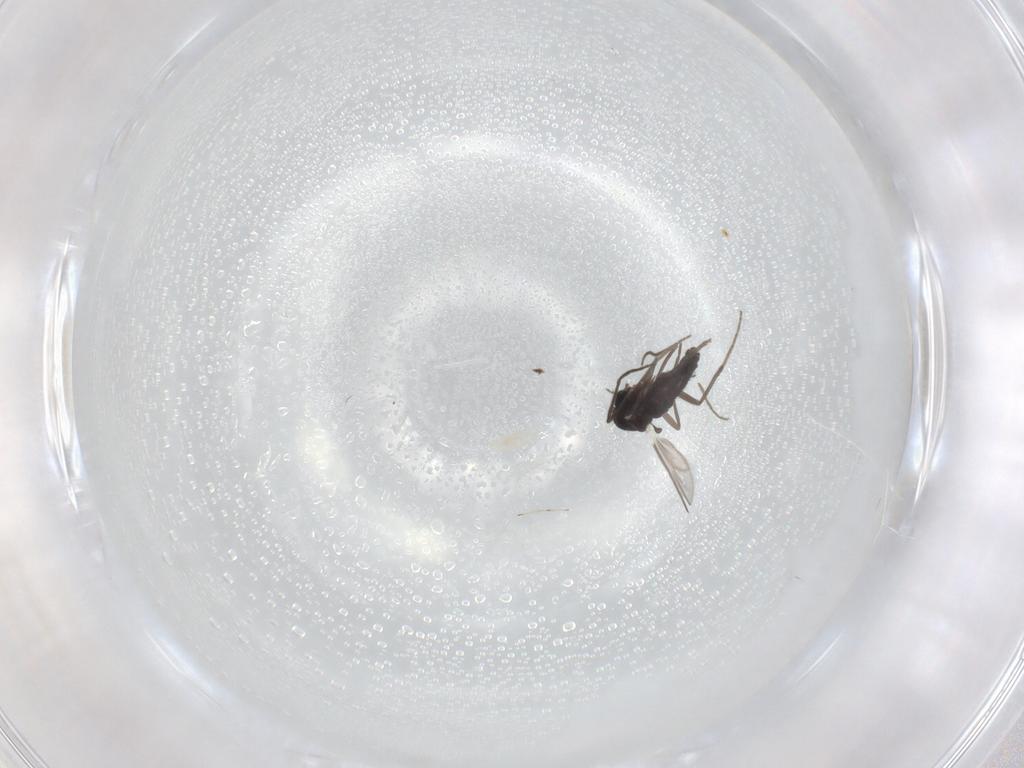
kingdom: Animalia
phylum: Arthropoda
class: Insecta
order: Diptera
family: Chironomidae
